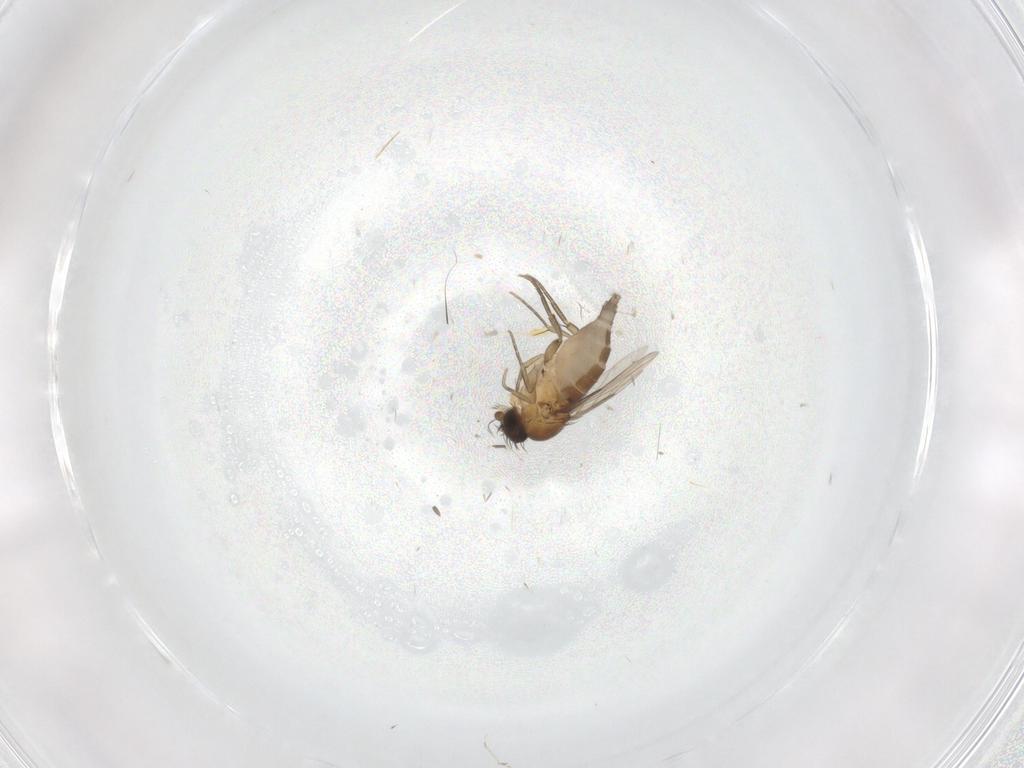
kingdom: Animalia
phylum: Arthropoda
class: Insecta
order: Diptera
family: Phoridae
